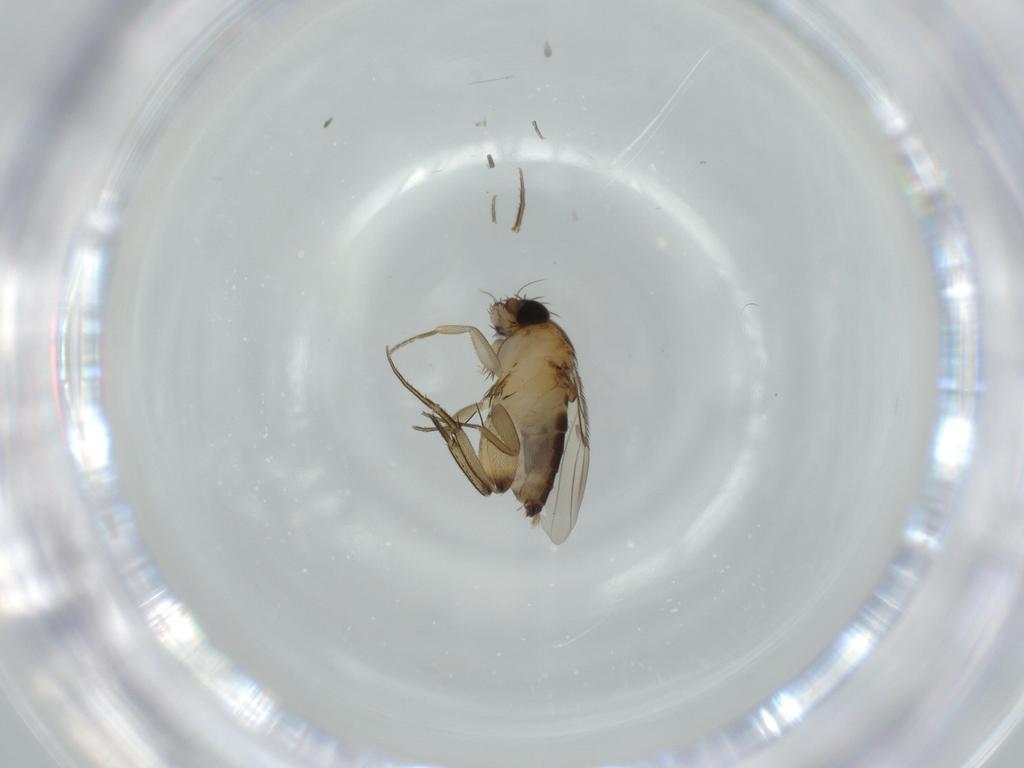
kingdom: Animalia
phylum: Arthropoda
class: Insecta
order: Diptera
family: Phoridae
